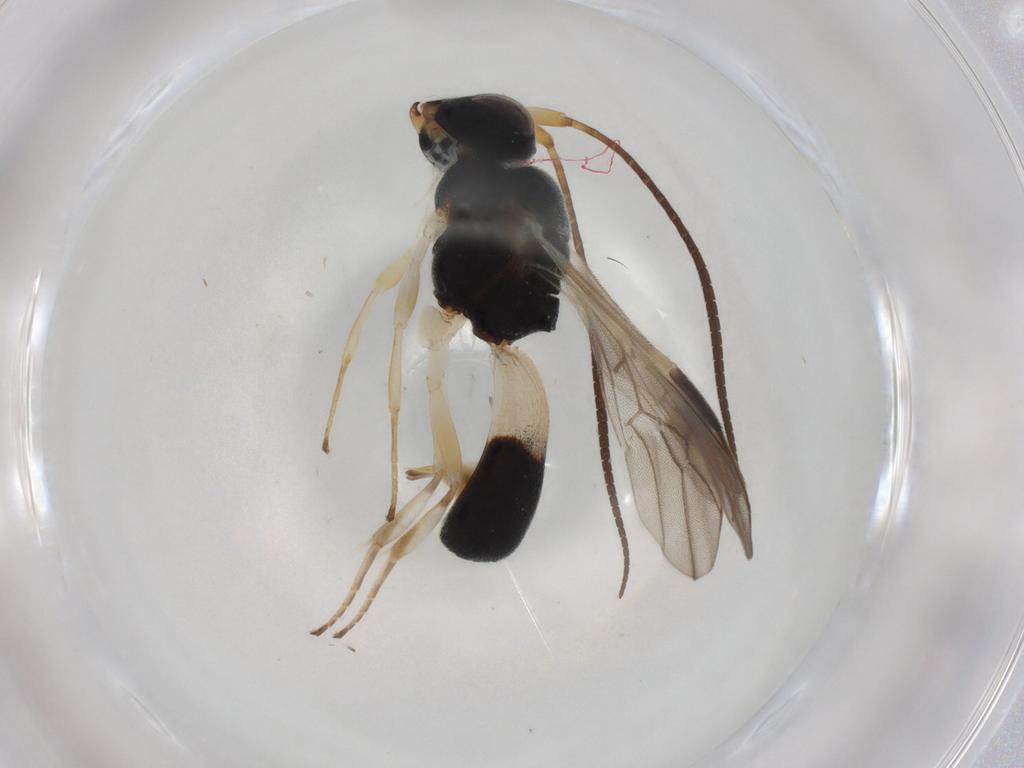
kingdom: Animalia
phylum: Arthropoda
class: Insecta
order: Hymenoptera
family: Braconidae
